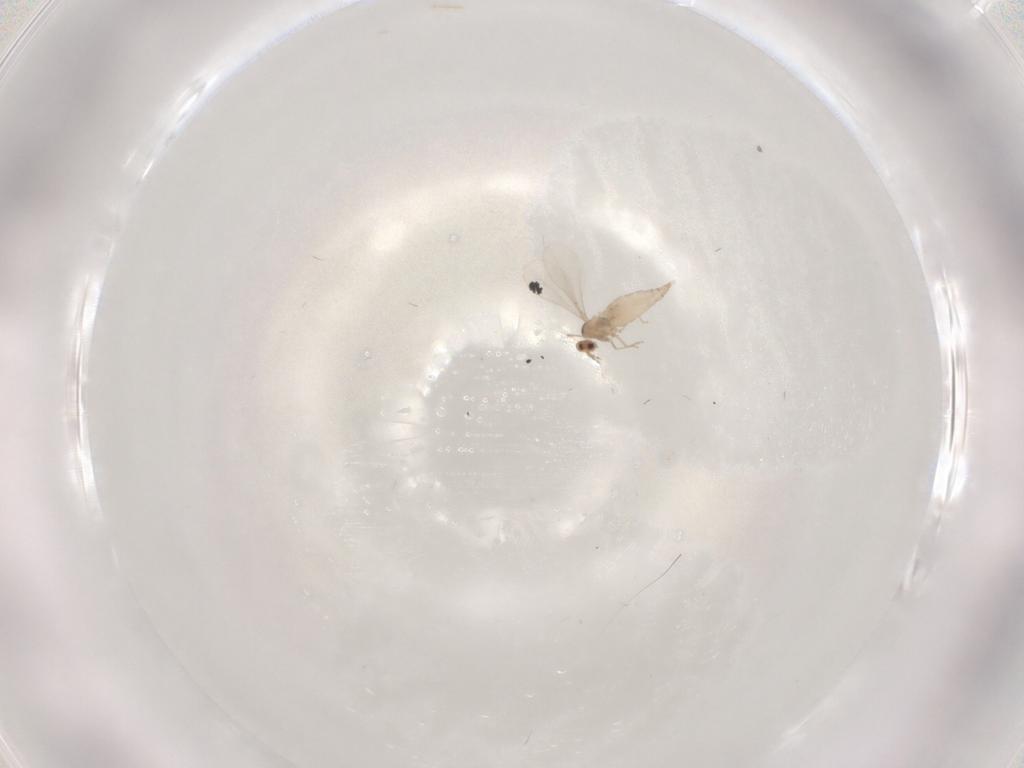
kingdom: Animalia
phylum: Arthropoda
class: Insecta
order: Diptera
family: Cecidomyiidae
